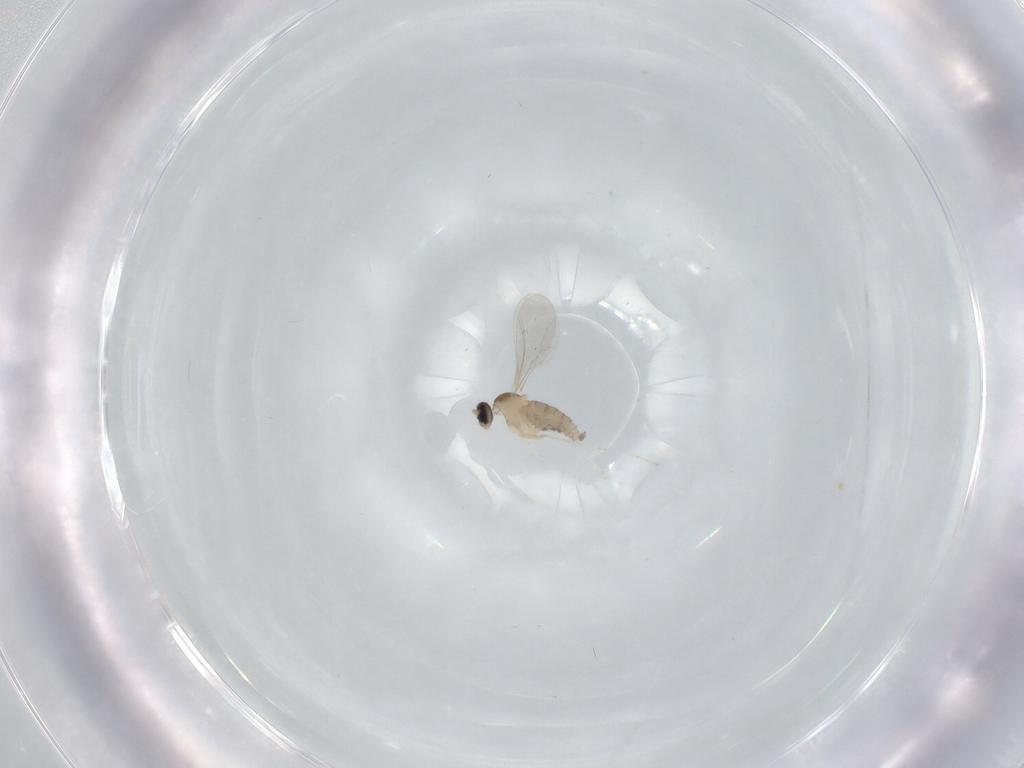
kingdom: Animalia
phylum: Arthropoda
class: Insecta
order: Diptera
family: Cecidomyiidae
